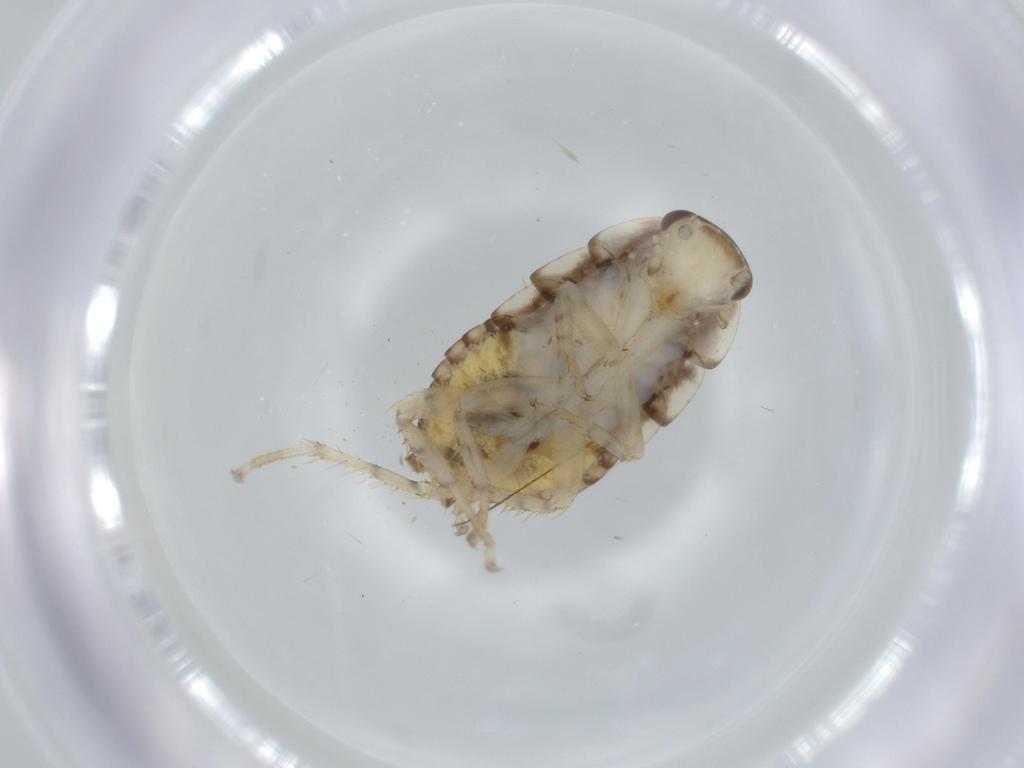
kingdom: Animalia
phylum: Arthropoda
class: Insecta
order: Blattodea
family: Ectobiidae
